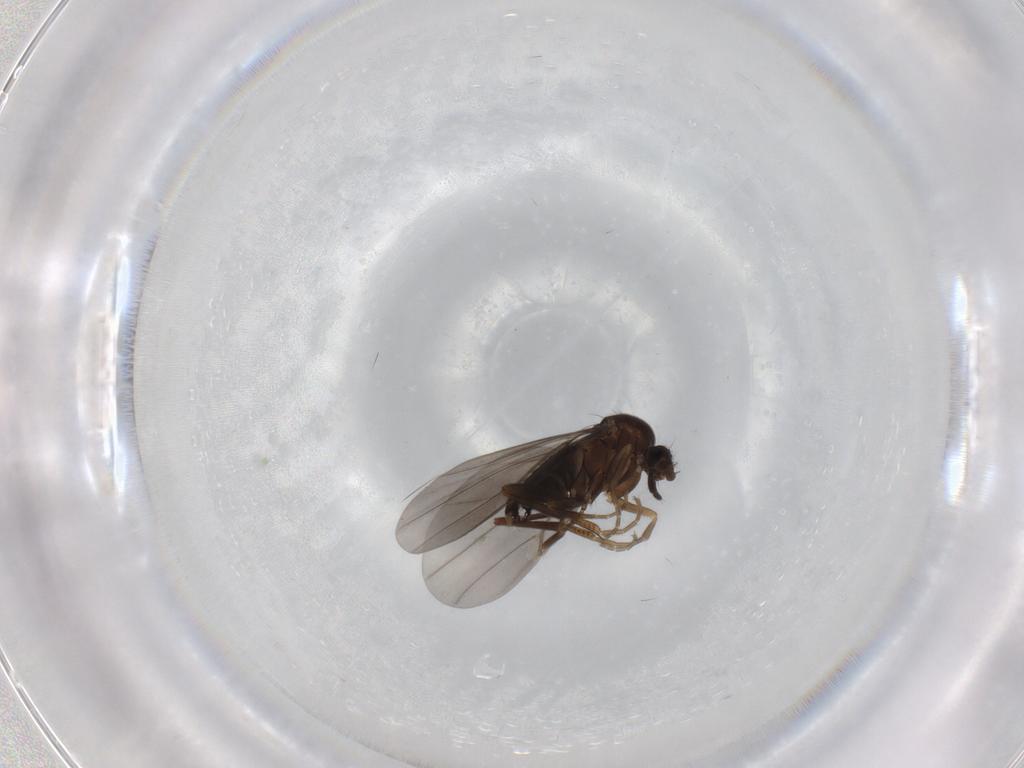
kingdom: Animalia
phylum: Arthropoda
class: Insecta
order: Diptera
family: Phoridae
